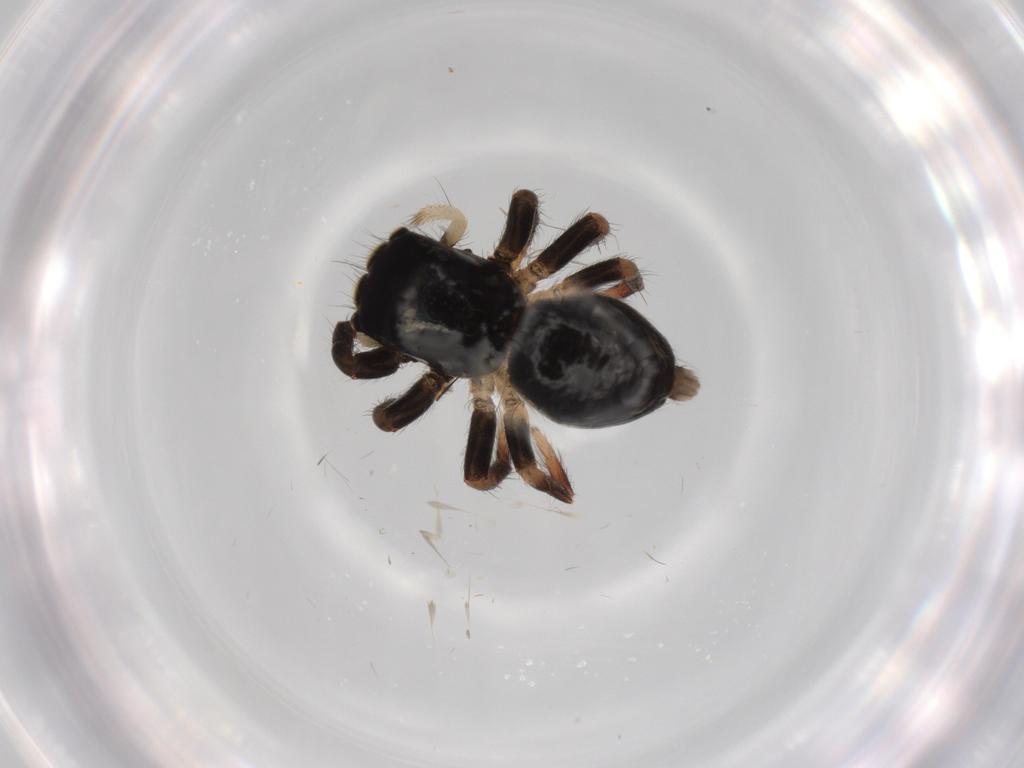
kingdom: Animalia
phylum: Arthropoda
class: Arachnida
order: Araneae
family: Salticidae
